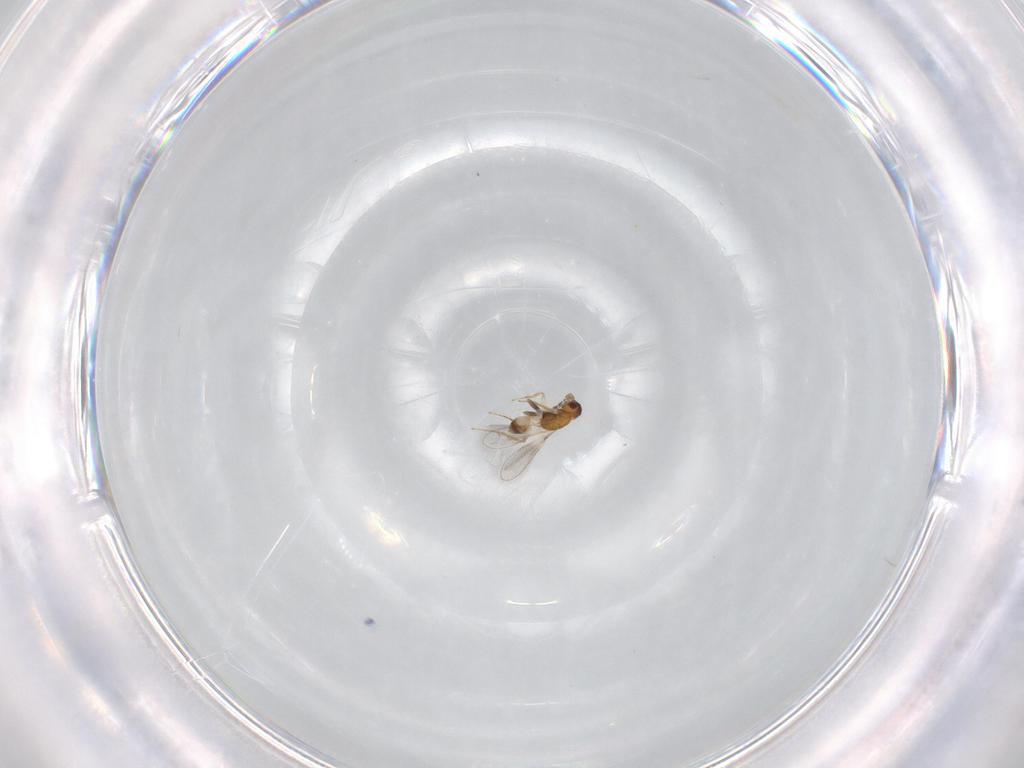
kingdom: Animalia
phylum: Arthropoda
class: Insecta
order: Hymenoptera
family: Mymaridae
